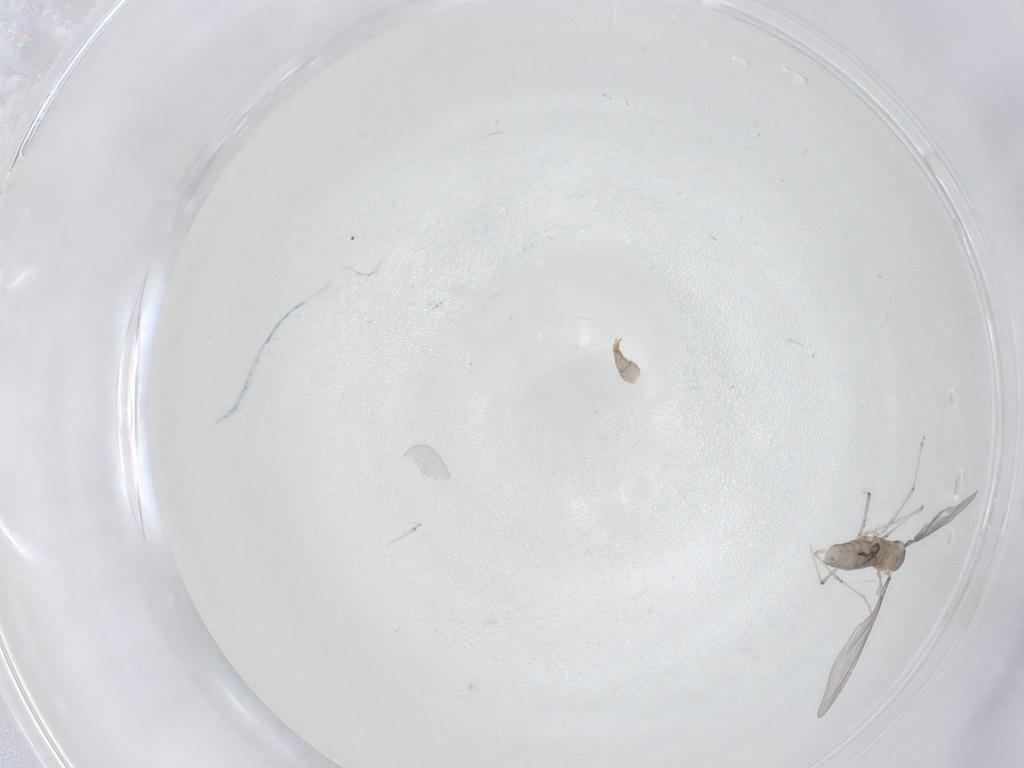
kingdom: Animalia
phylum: Arthropoda
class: Insecta
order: Diptera
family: Cecidomyiidae
